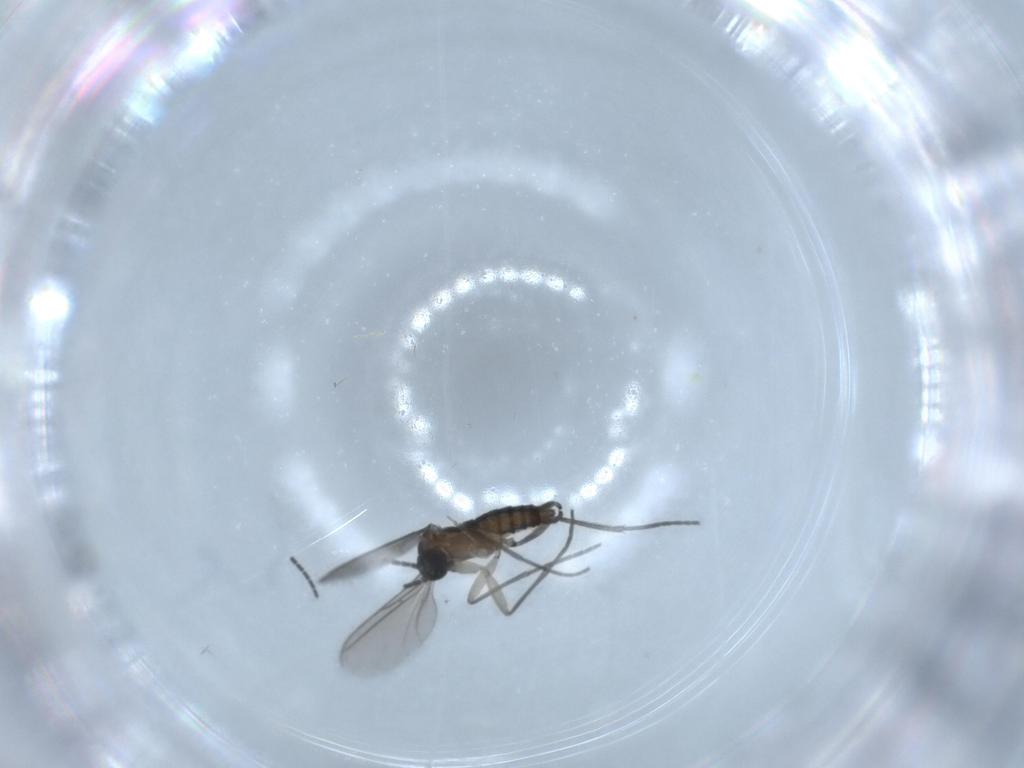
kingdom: Animalia
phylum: Arthropoda
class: Insecta
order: Diptera
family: Sciaridae
